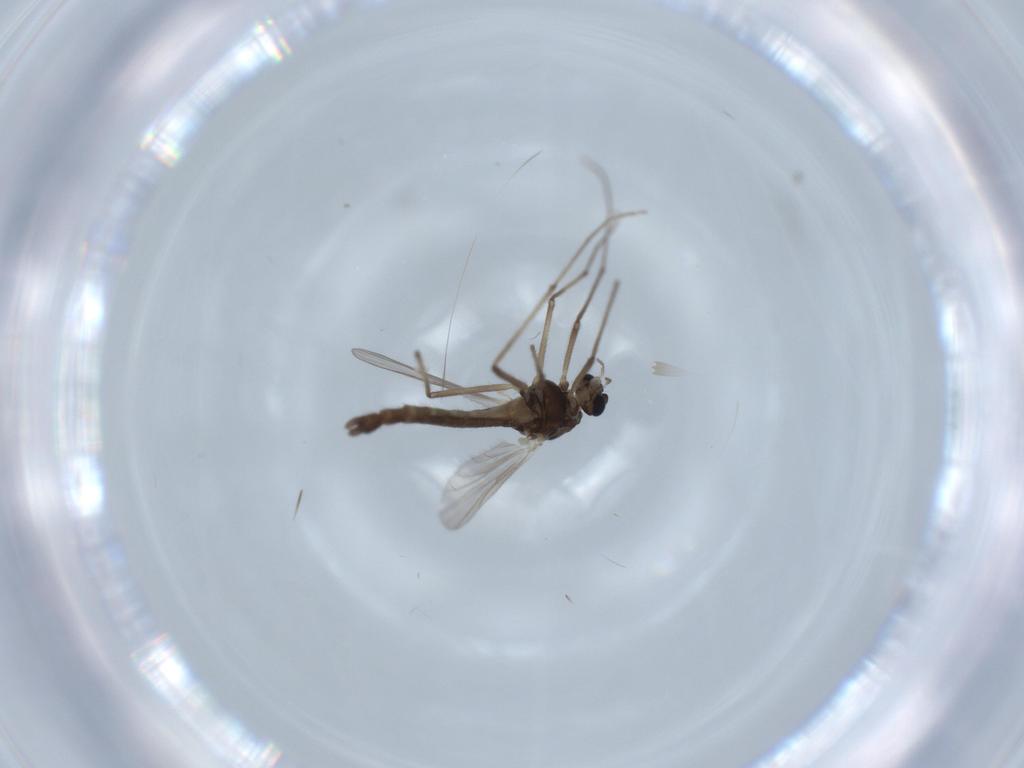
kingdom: Animalia
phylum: Arthropoda
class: Insecta
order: Diptera
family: Chironomidae
